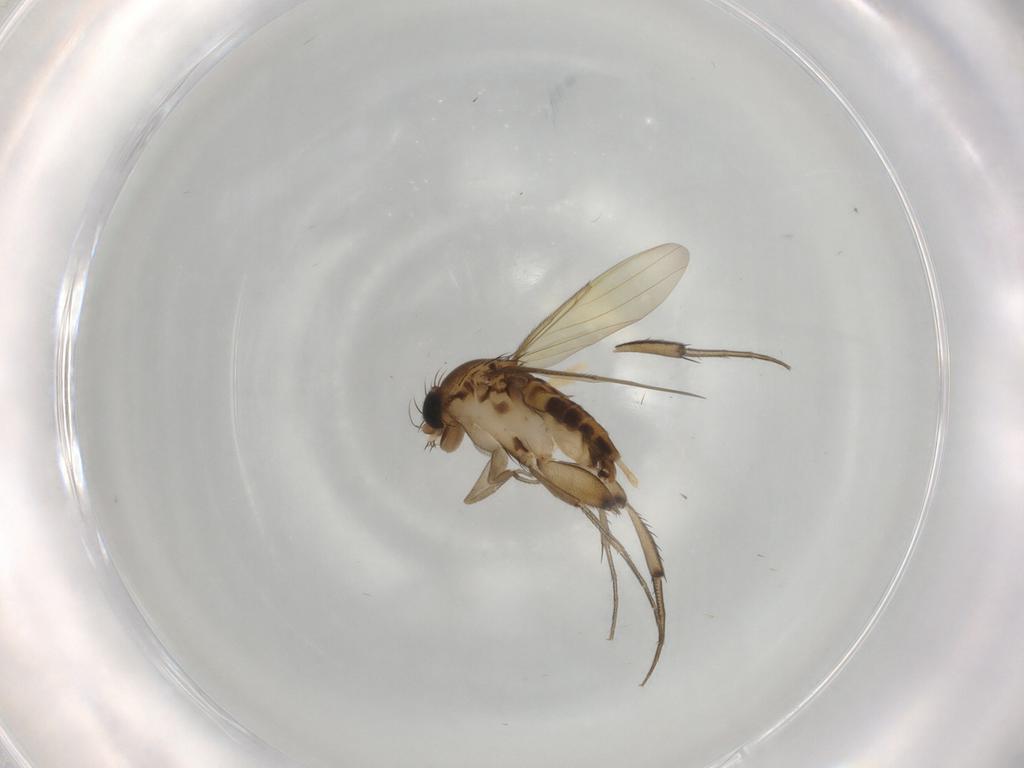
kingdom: Animalia
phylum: Arthropoda
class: Insecta
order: Diptera
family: Phoridae
